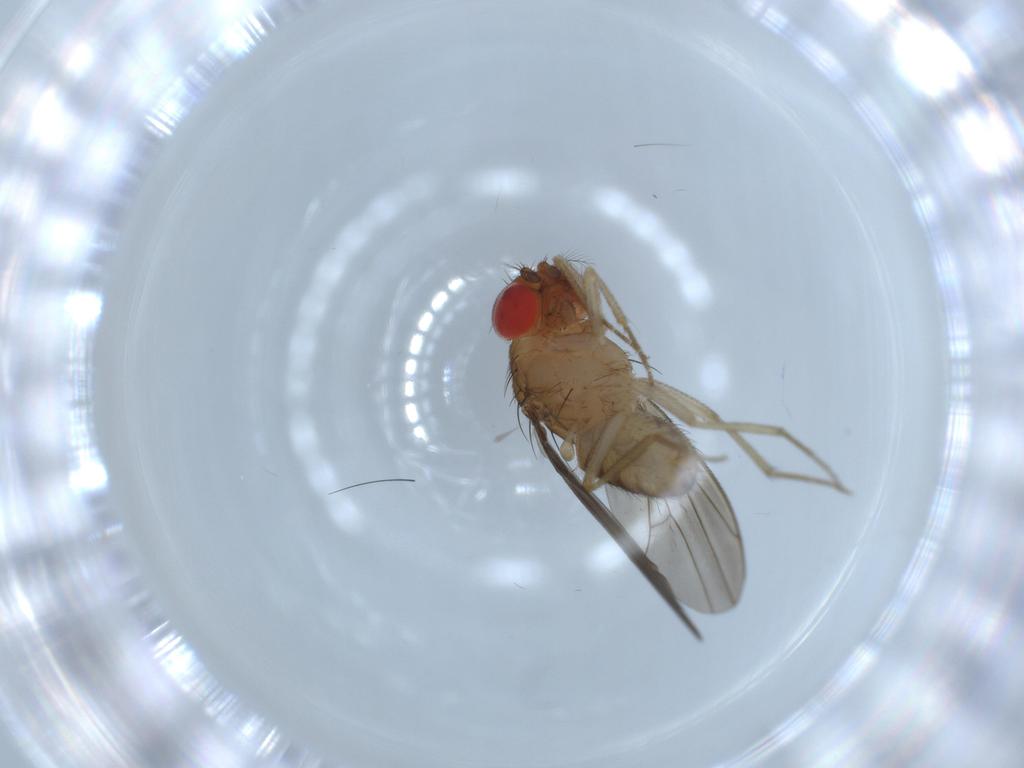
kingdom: Animalia
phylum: Arthropoda
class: Insecta
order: Diptera
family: Drosophilidae
